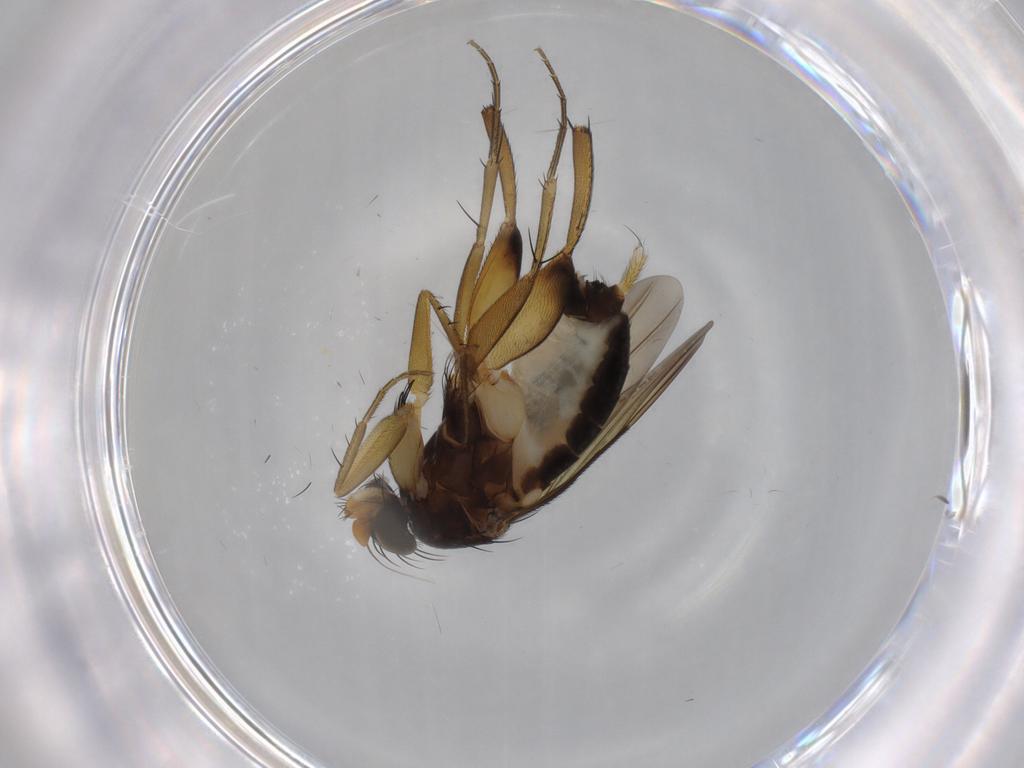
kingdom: Animalia
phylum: Arthropoda
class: Insecta
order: Diptera
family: Phoridae
